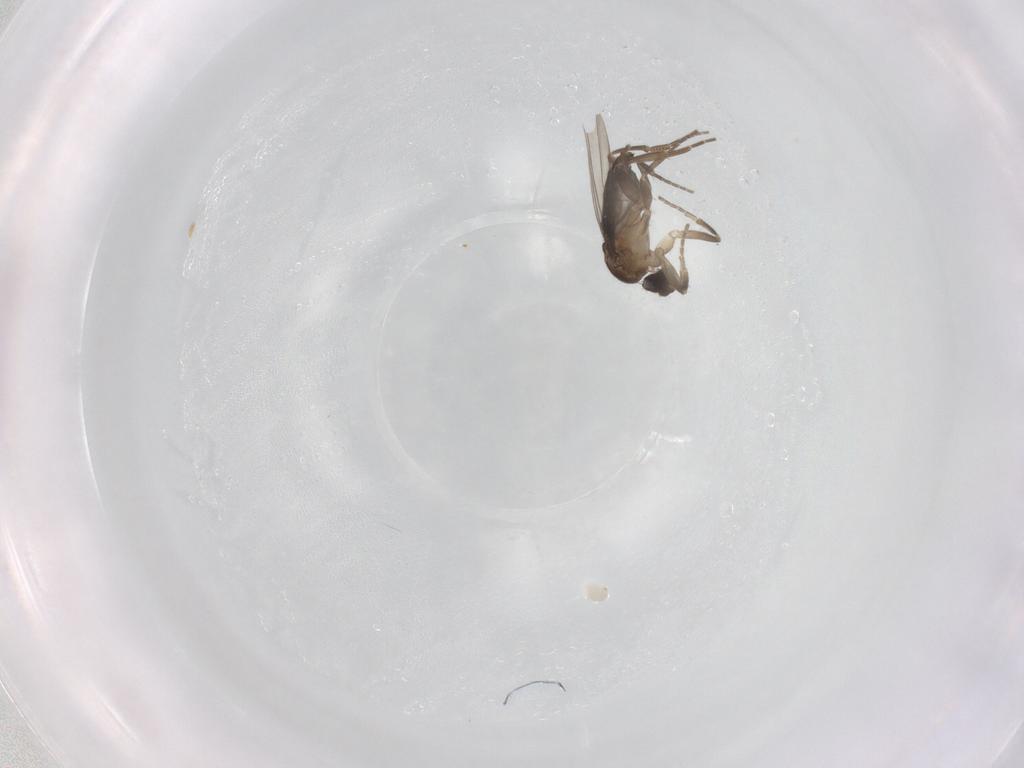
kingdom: Animalia
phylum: Arthropoda
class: Insecta
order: Diptera
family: Phoridae
